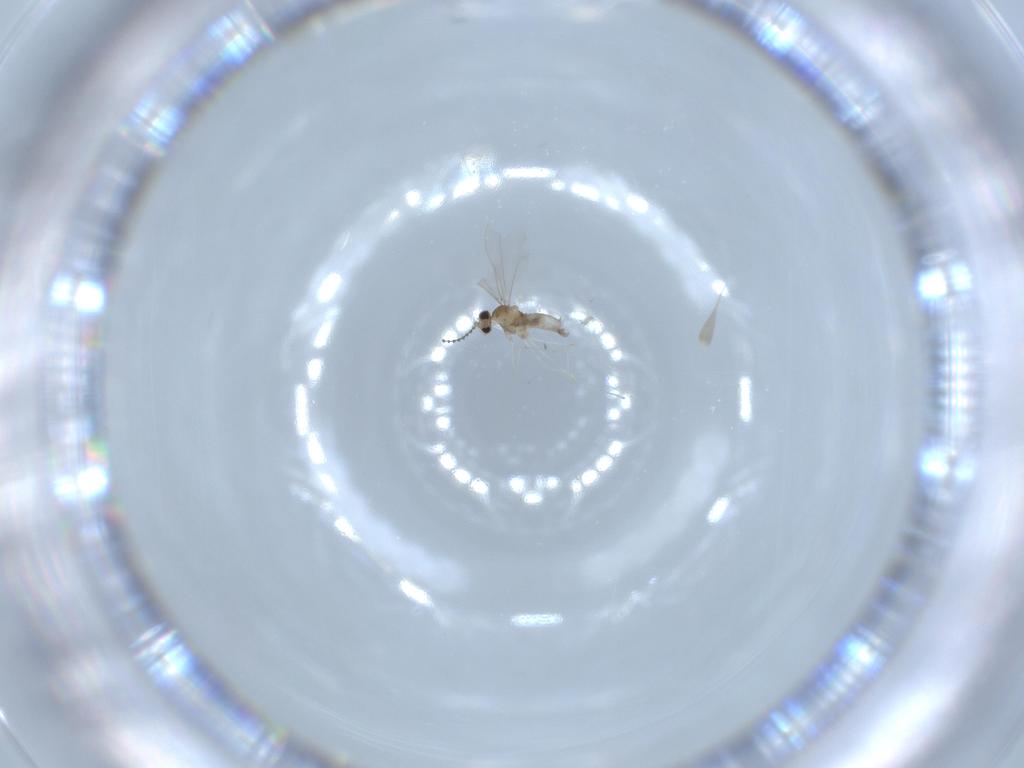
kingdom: Animalia
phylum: Arthropoda
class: Insecta
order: Diptera
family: Cecidomyiidae
